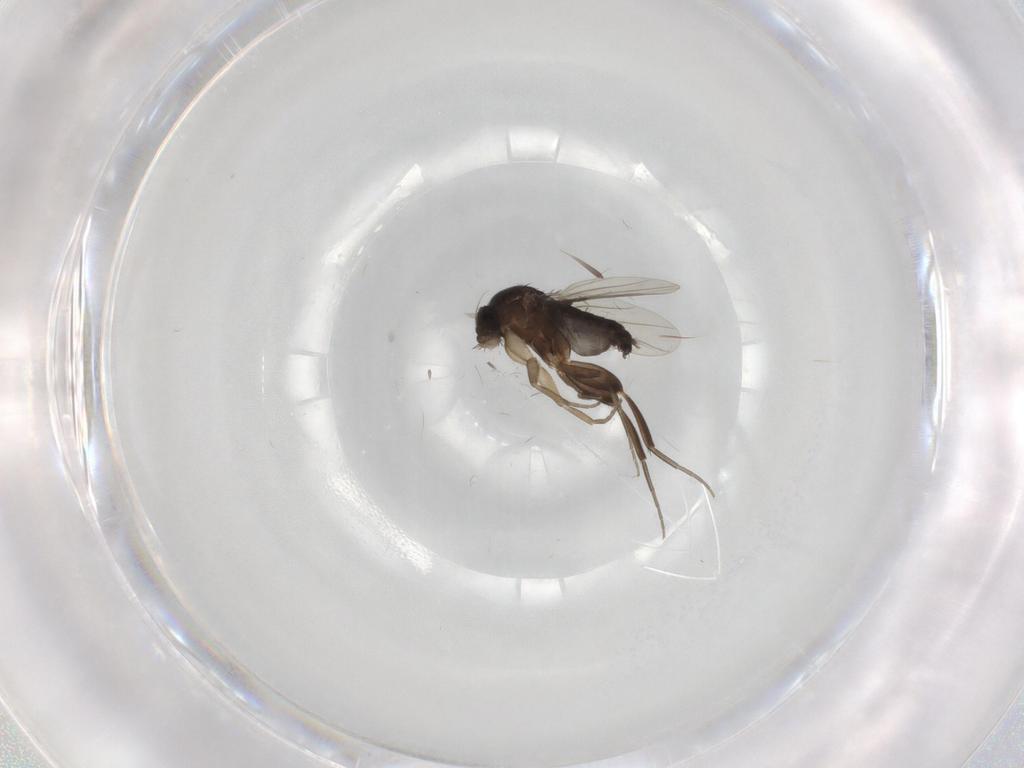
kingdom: Animalia
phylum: Arthropoda
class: Insecta
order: Diptera
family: Phoridae
